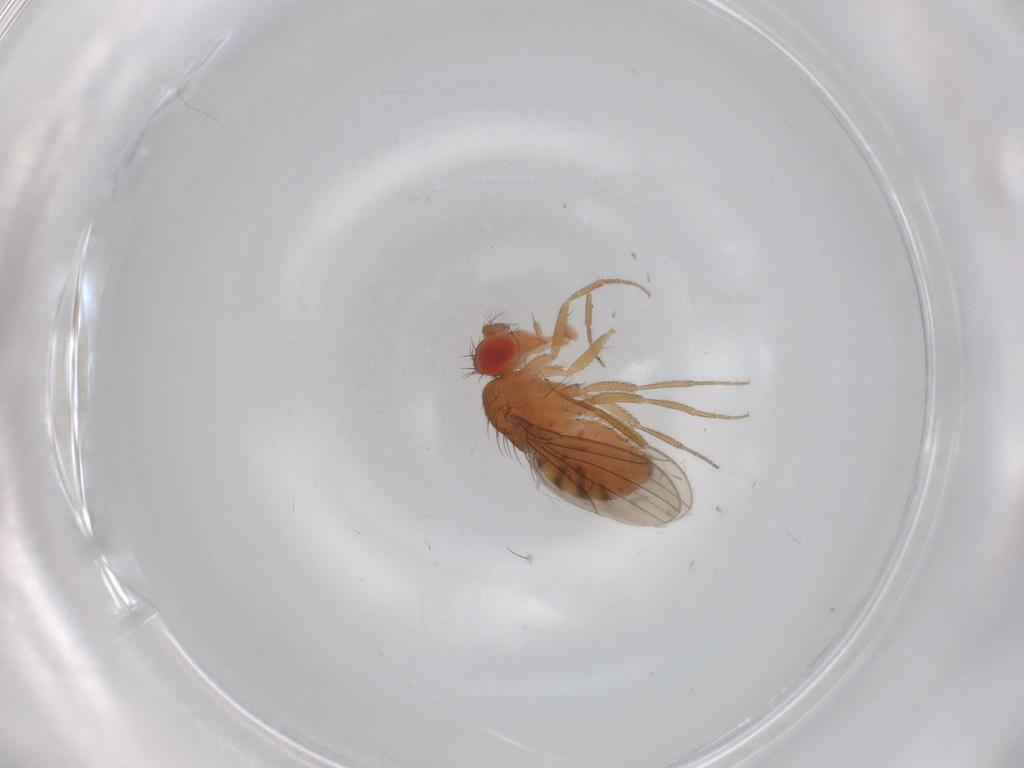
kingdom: Animalia
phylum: Arthropoda
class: Insecta
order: Diptera
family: Drosophilidae
